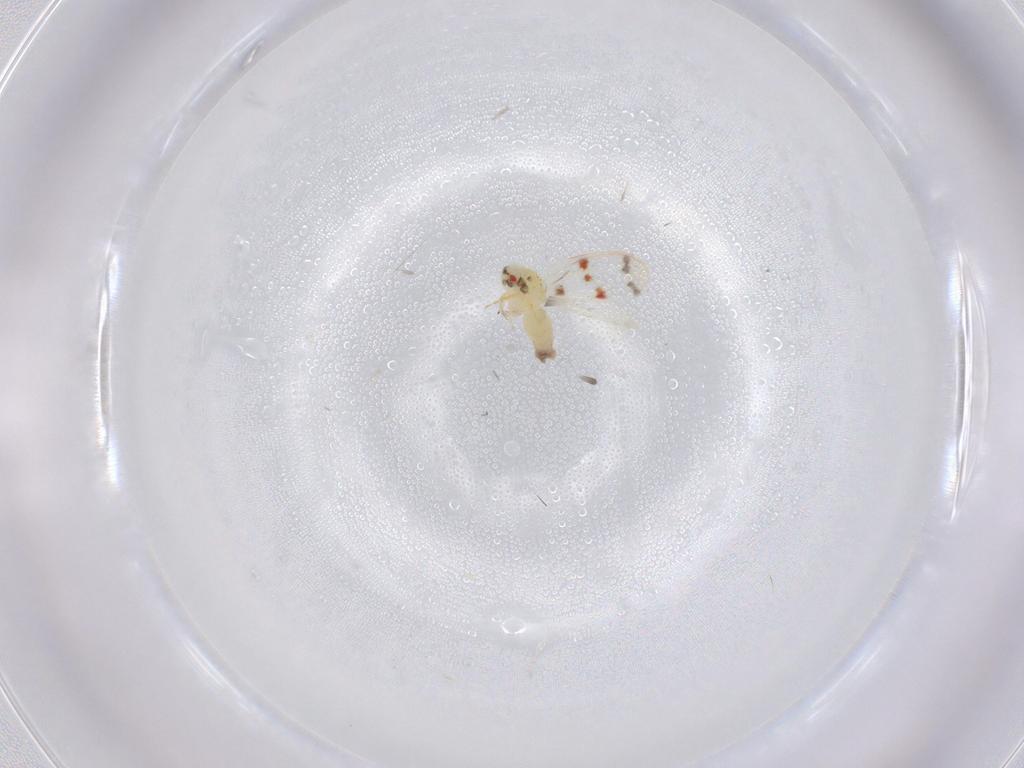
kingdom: Animalia
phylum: Arthropoda
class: Insecta
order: Hemiptera
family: Aleyrodidae
